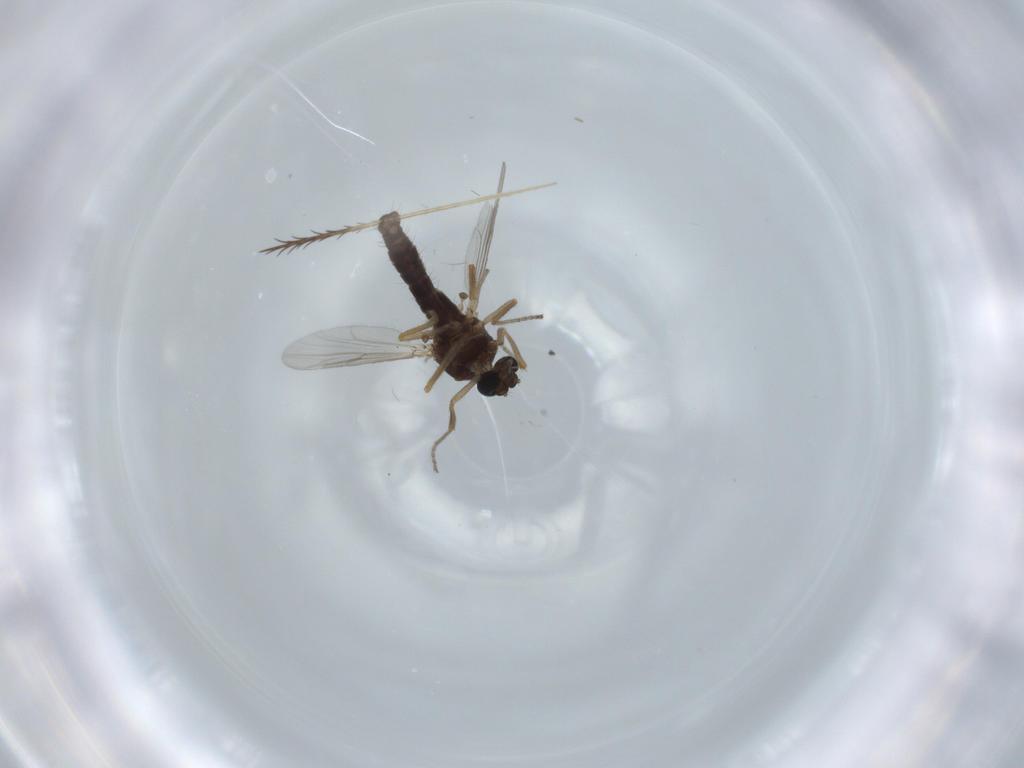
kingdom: Animalia
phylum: Arthropoda
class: Insecta
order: Diptera
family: Ceratopogonidae
